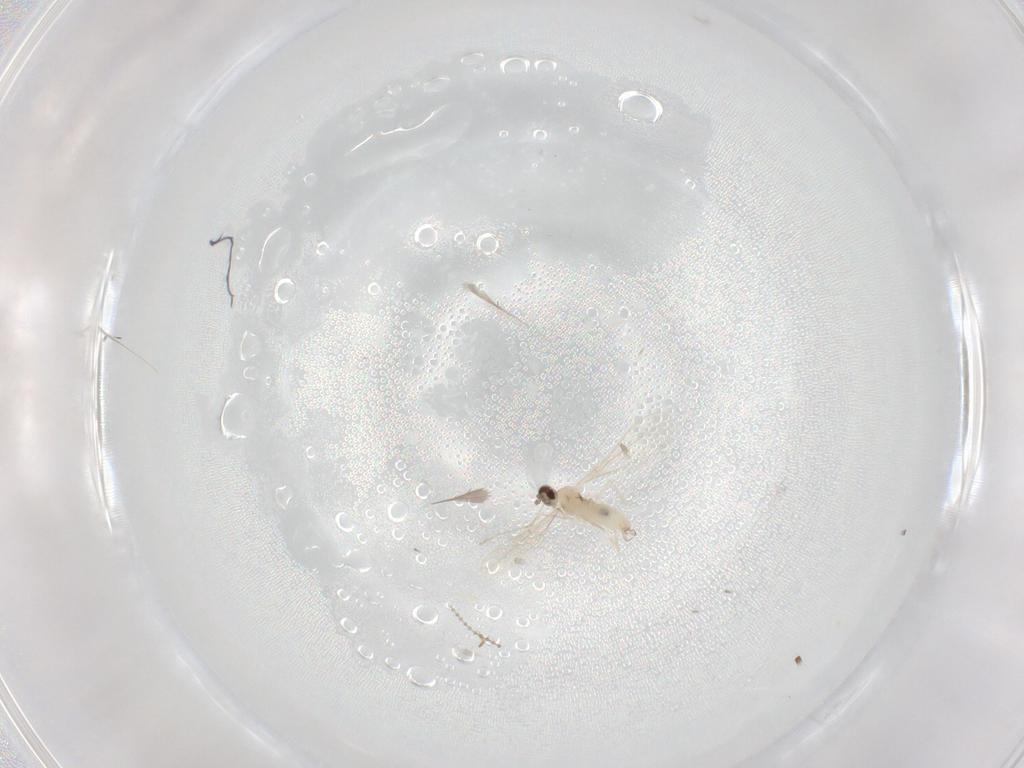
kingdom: Animalia
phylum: Arthropoda
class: Insecta
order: Diptera
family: Cecidomyiidae
